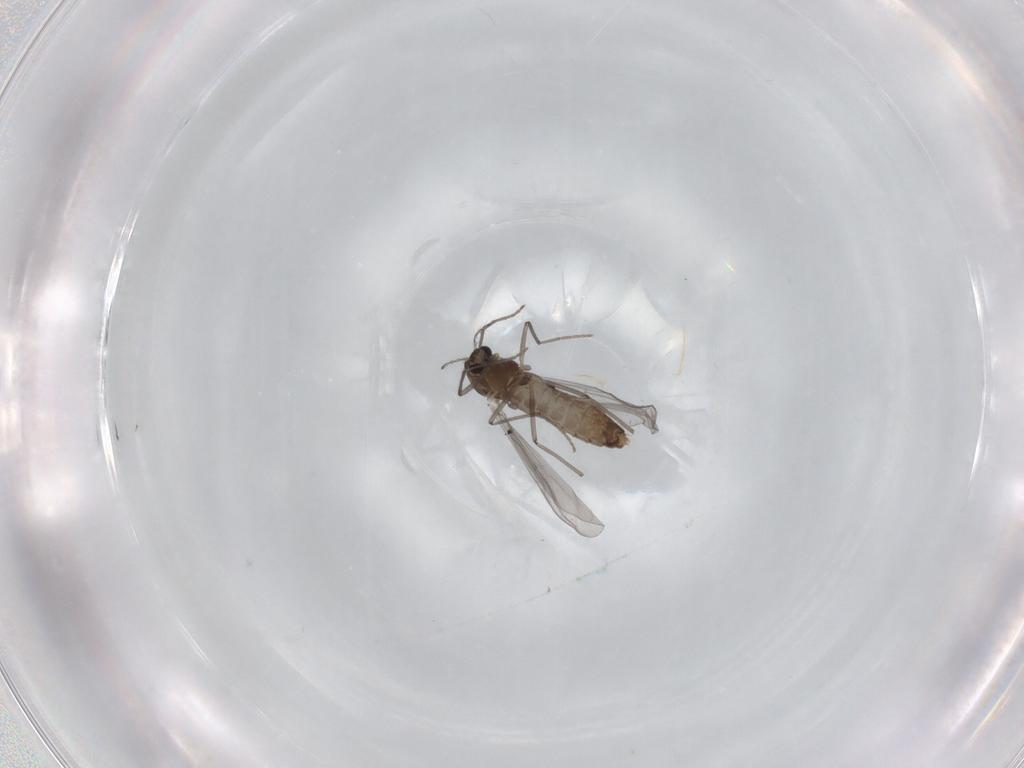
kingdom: Animalia
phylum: Arthropoda
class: Insecta
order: Diptera
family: Chironomidae
